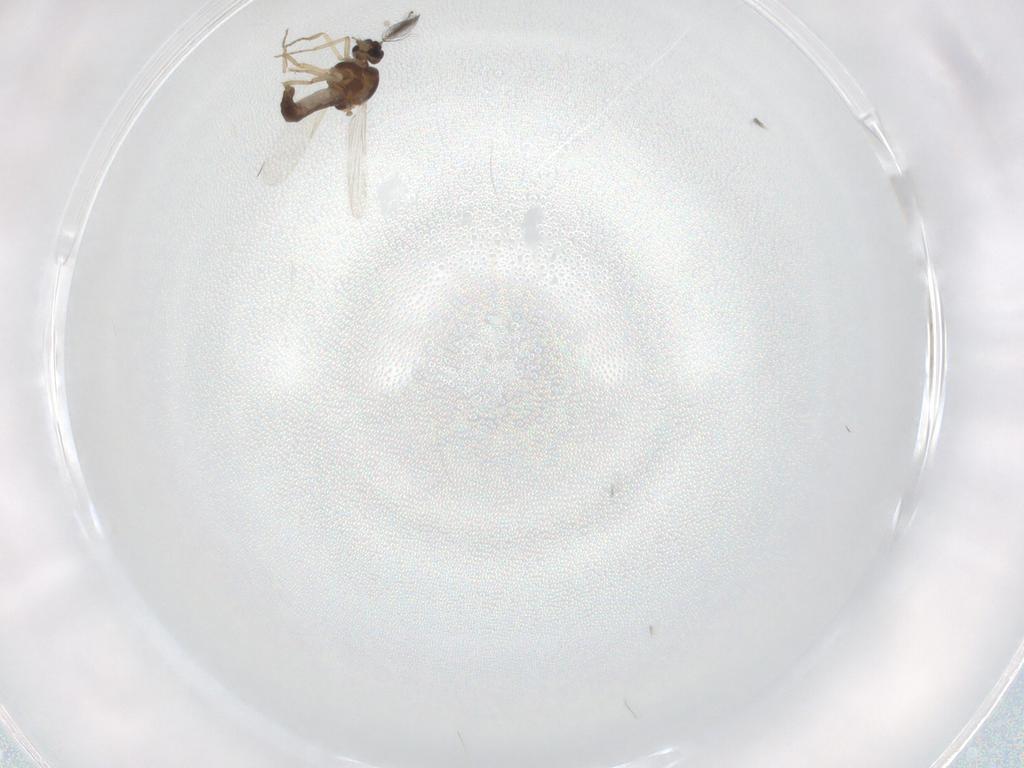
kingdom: Animalia
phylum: Arthropoda
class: Insecta
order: Diptera
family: Ceratopogonidae
